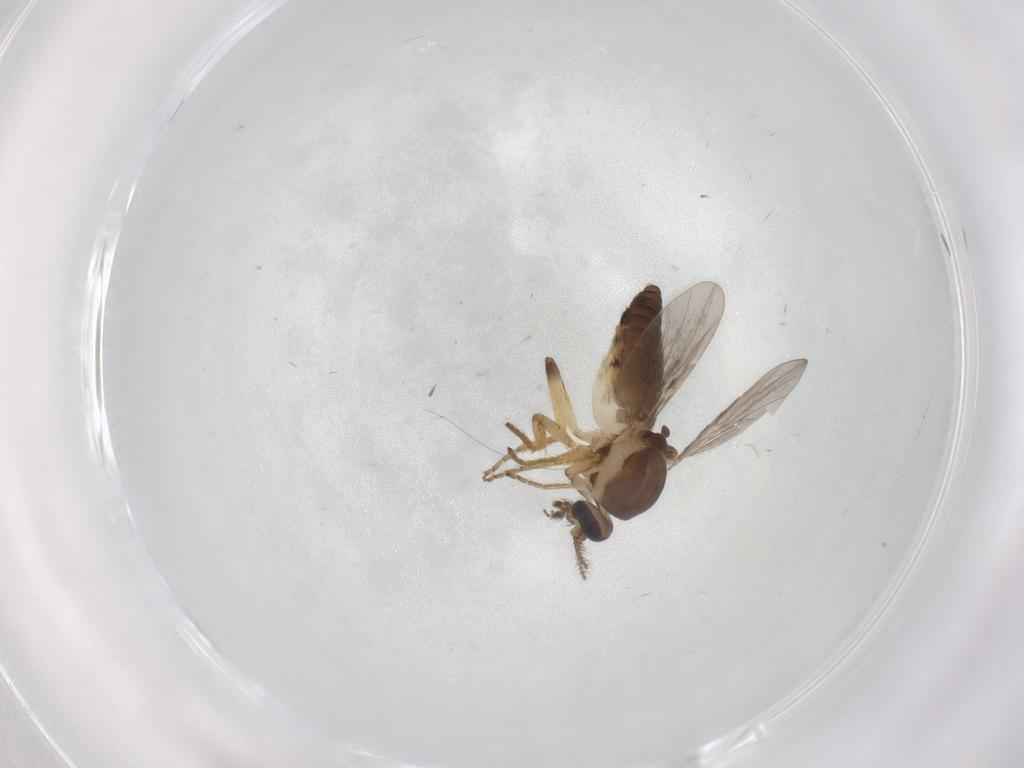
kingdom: Animalia
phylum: Arthropoda
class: Insecta
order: Diptera
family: Ceratopogonidae
